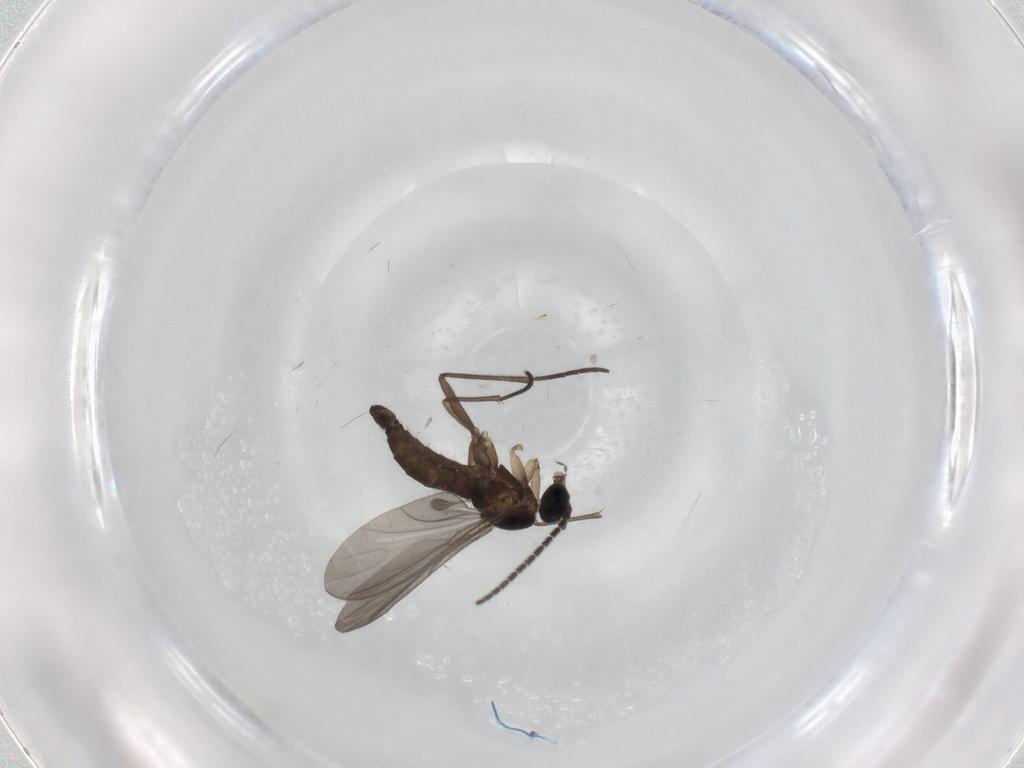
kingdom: Animalia
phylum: Arthropoda
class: Insecta
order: Diptera
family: Sciaridae
